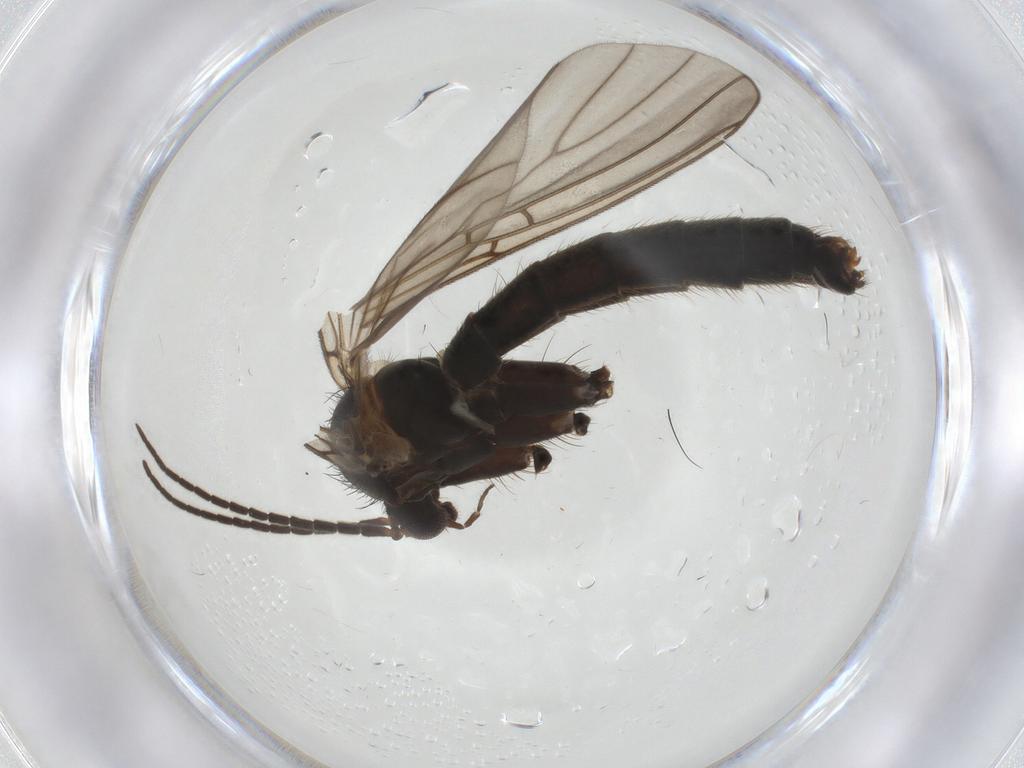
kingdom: Animalia
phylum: Arthropoda
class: Insecta
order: Diptera
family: Mycetophilidae
